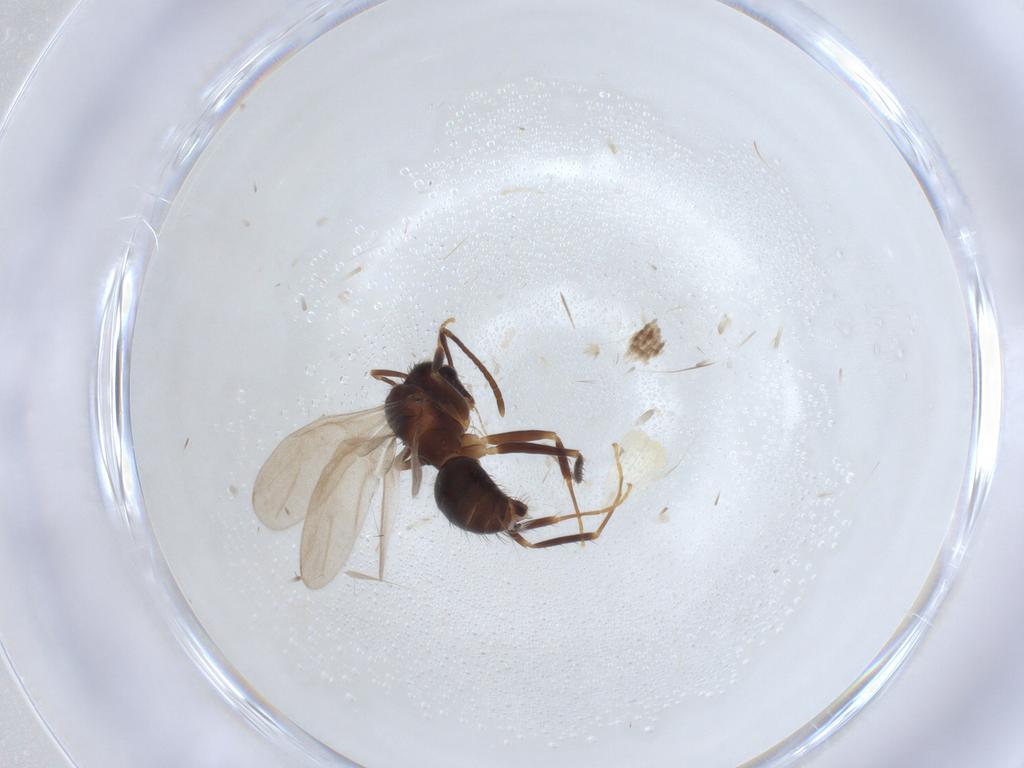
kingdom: Animalia
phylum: Arthropoda
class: Insecta
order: Hymenoptera
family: Formicidae
